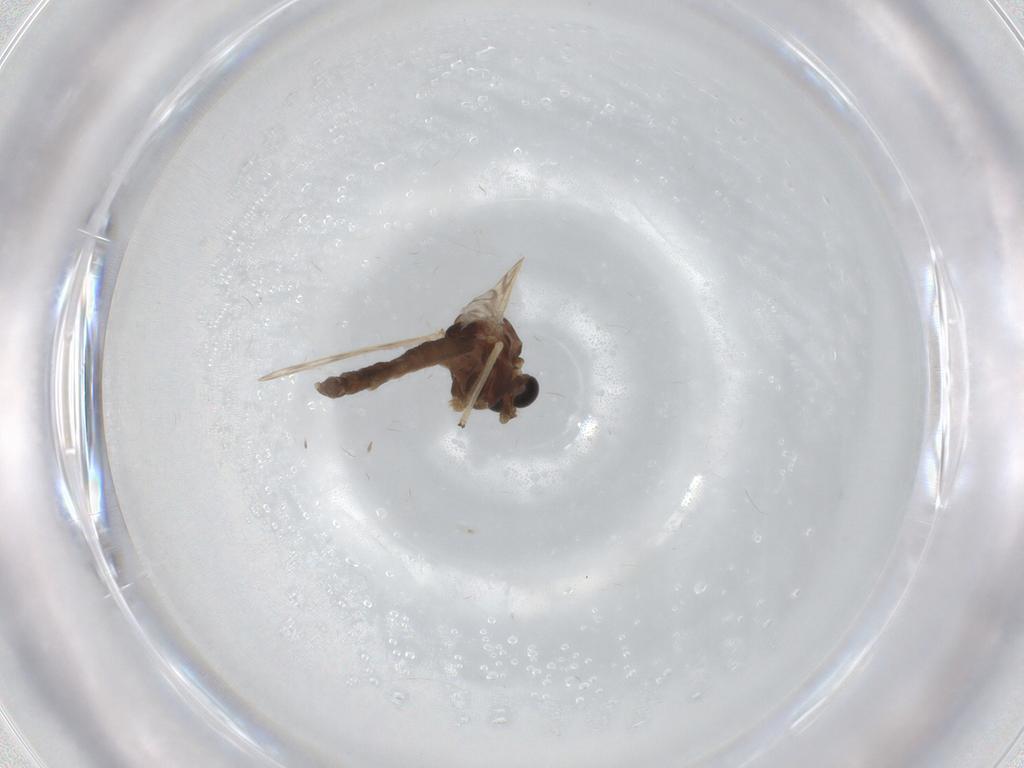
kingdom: Animalia
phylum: Arthropoda
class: Insecta
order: Diptera
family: Chironomidae
